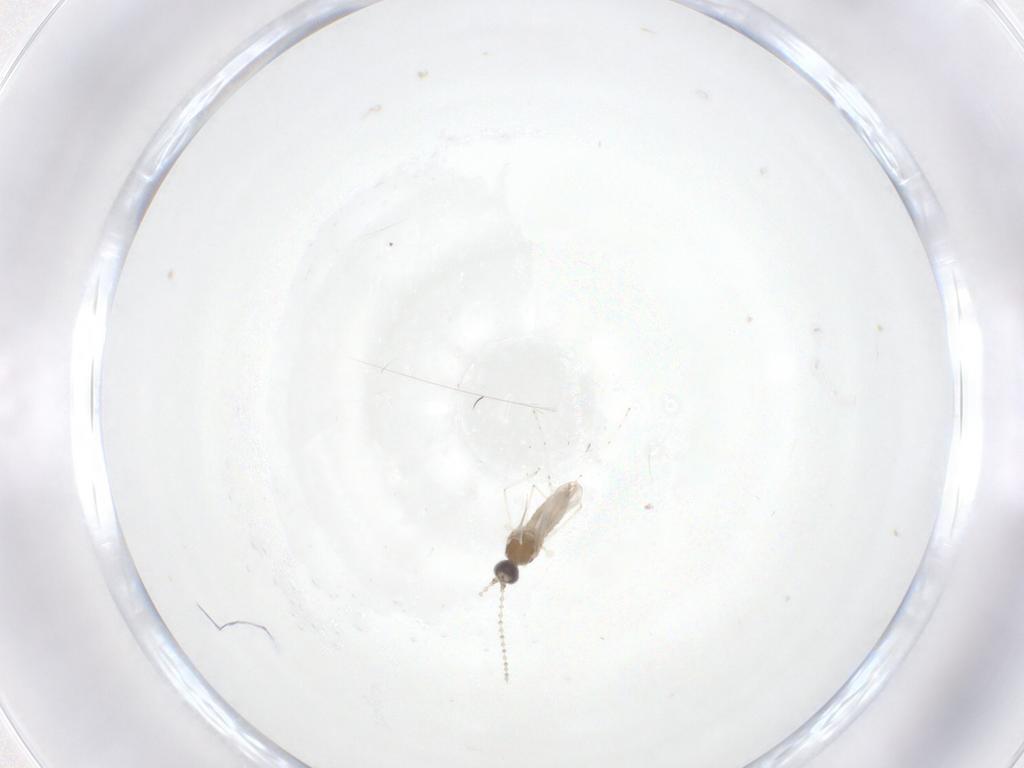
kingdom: Animalia
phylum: Arthropoda
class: Insecta
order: Diptera
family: Cecidomyiidae
